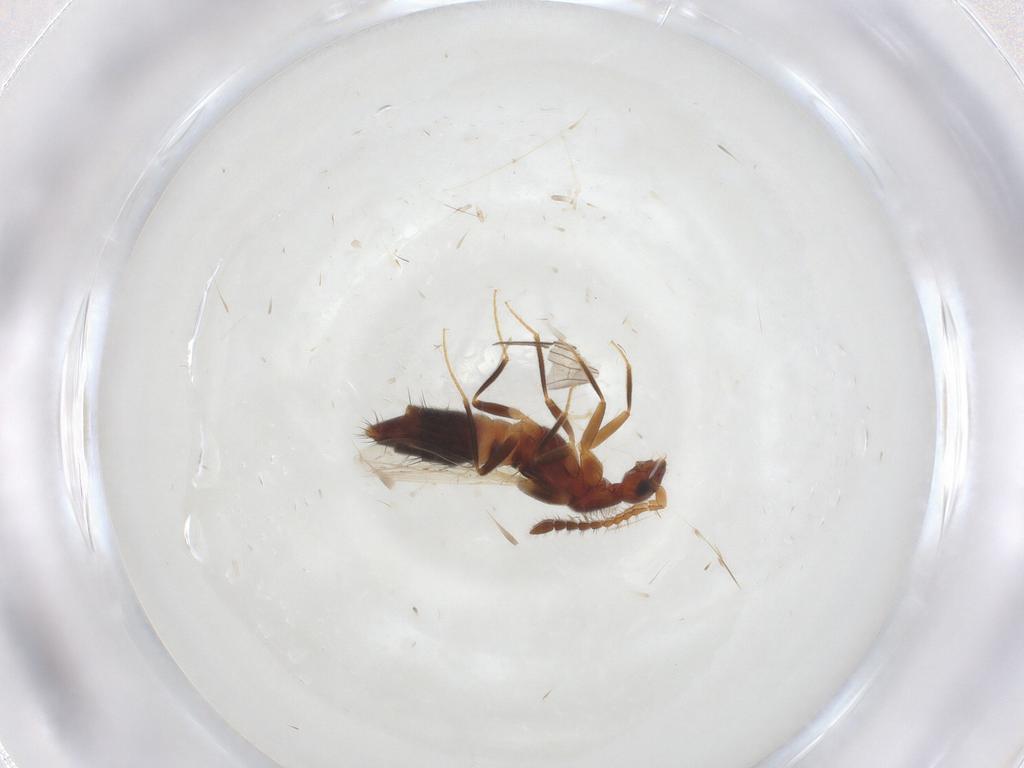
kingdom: Animalia
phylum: Arthropoda
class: Insecta
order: Coleoptera
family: Staphylinidae
